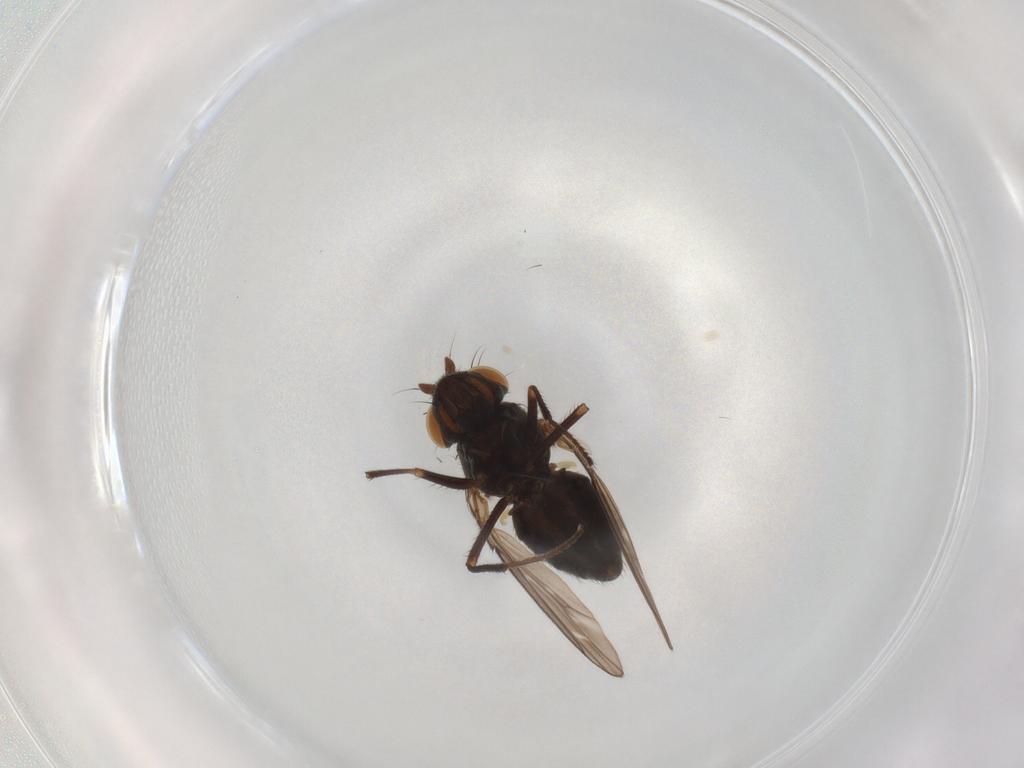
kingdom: Animalia
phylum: Arthropoda
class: Insecta
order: Diptera
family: Ephydridae
